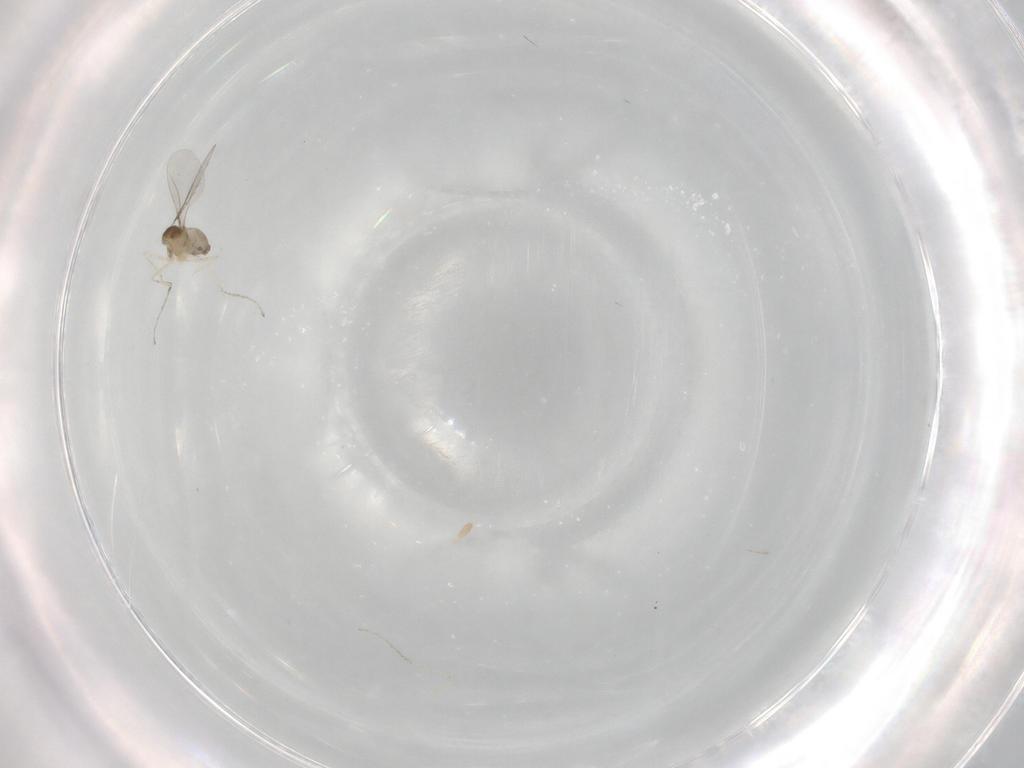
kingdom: Animalia
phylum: Arthropoda
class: Insecta
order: Diptera
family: Cecidomyiidae
